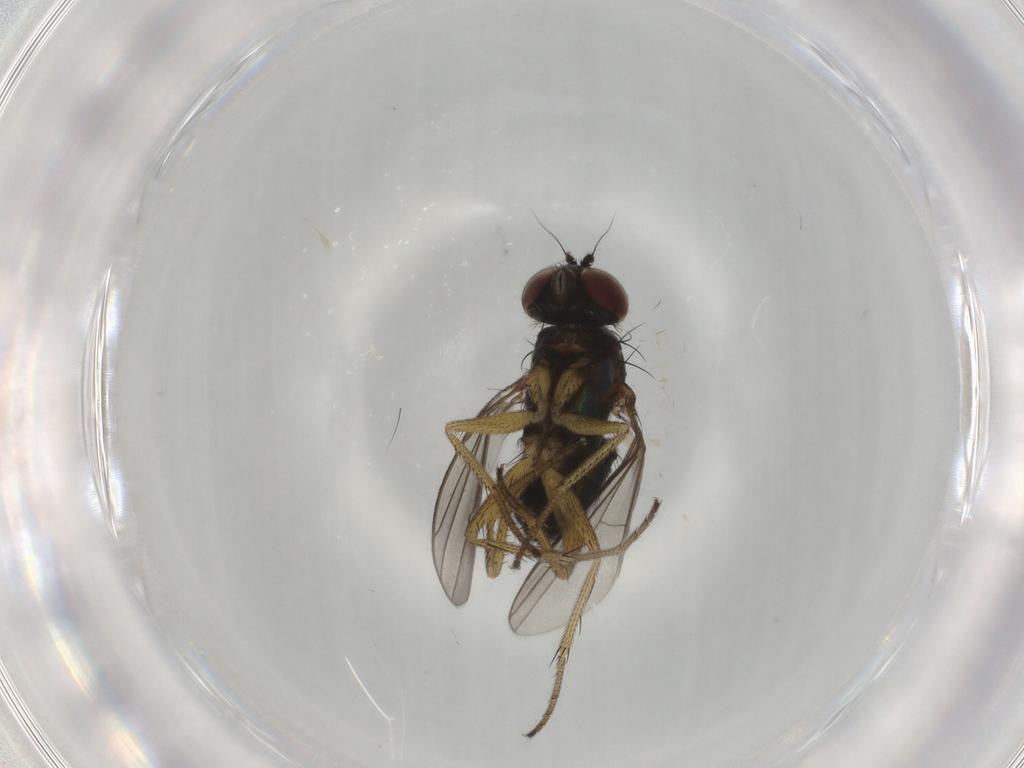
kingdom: Animalia
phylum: Arthropoda
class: Insecta
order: Diptera
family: Dolichopodidae
